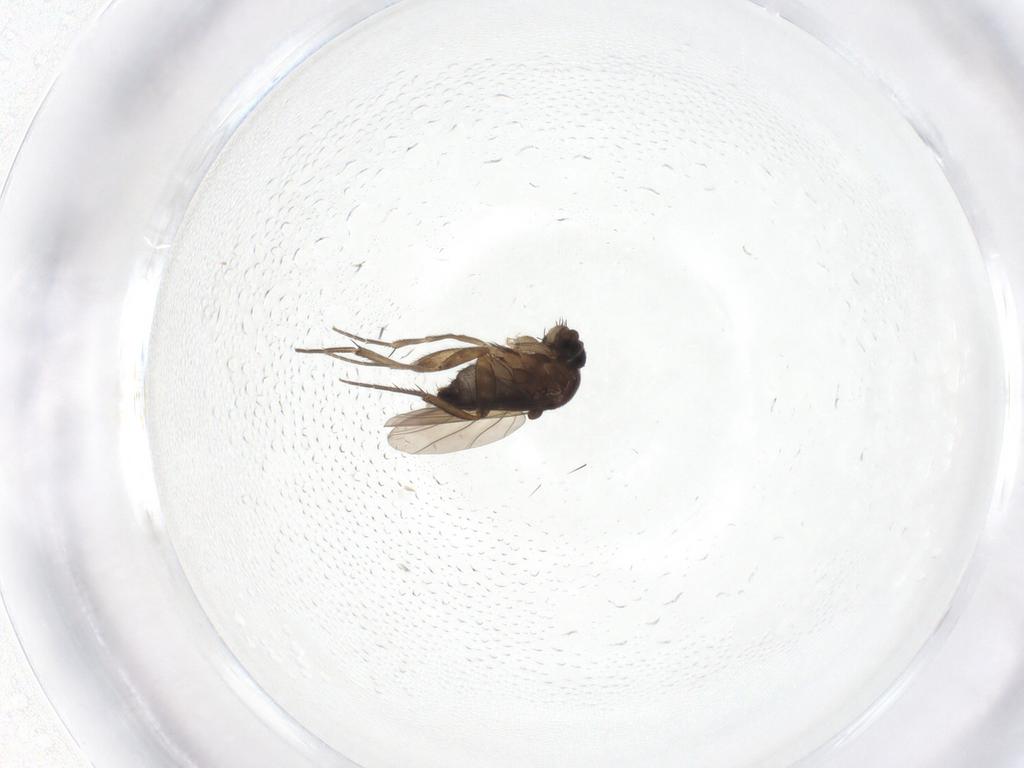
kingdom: Animalia
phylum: Arthropoda
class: Insecta
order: Diptera
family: Phoridae
